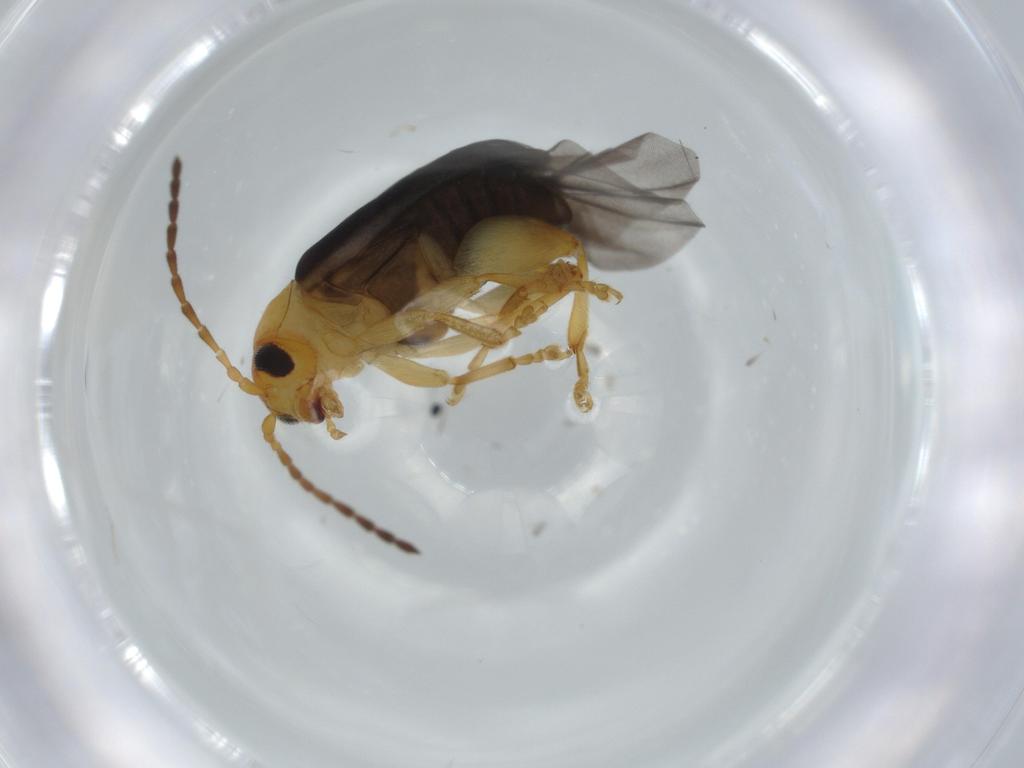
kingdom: Animalia
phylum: Arthropoda
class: Insecta
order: Coleoptera
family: Chrysomelidae
